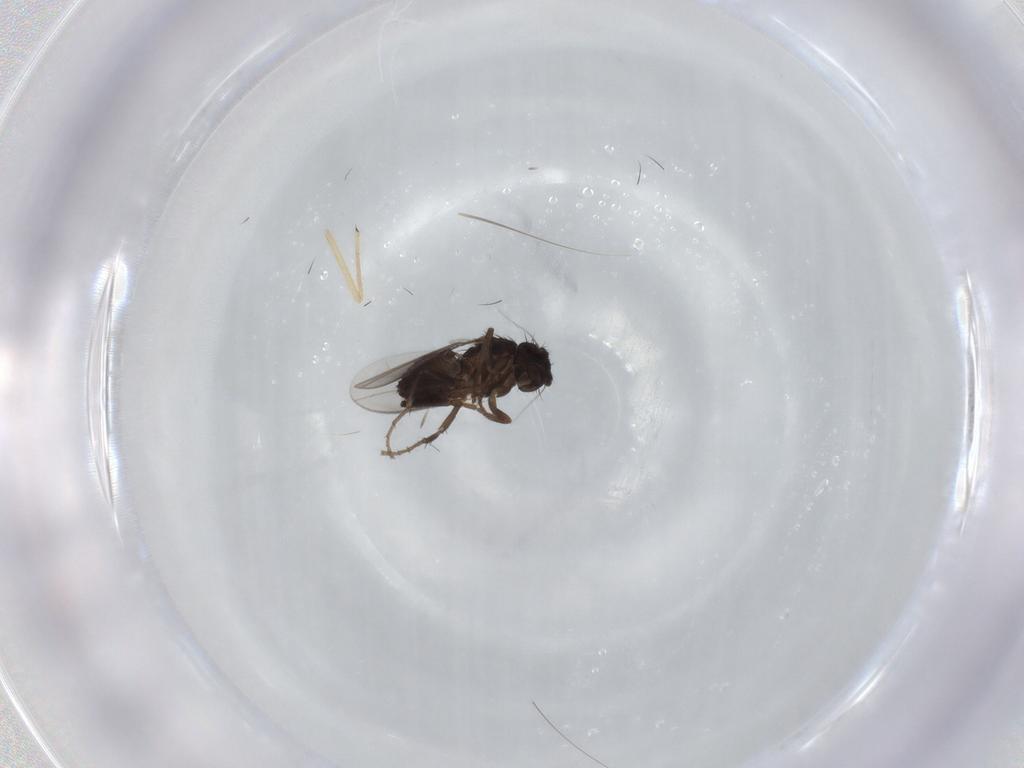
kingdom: Animalia
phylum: Arthropoda
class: Insecta
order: Diptera
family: Sphaeroceridae
